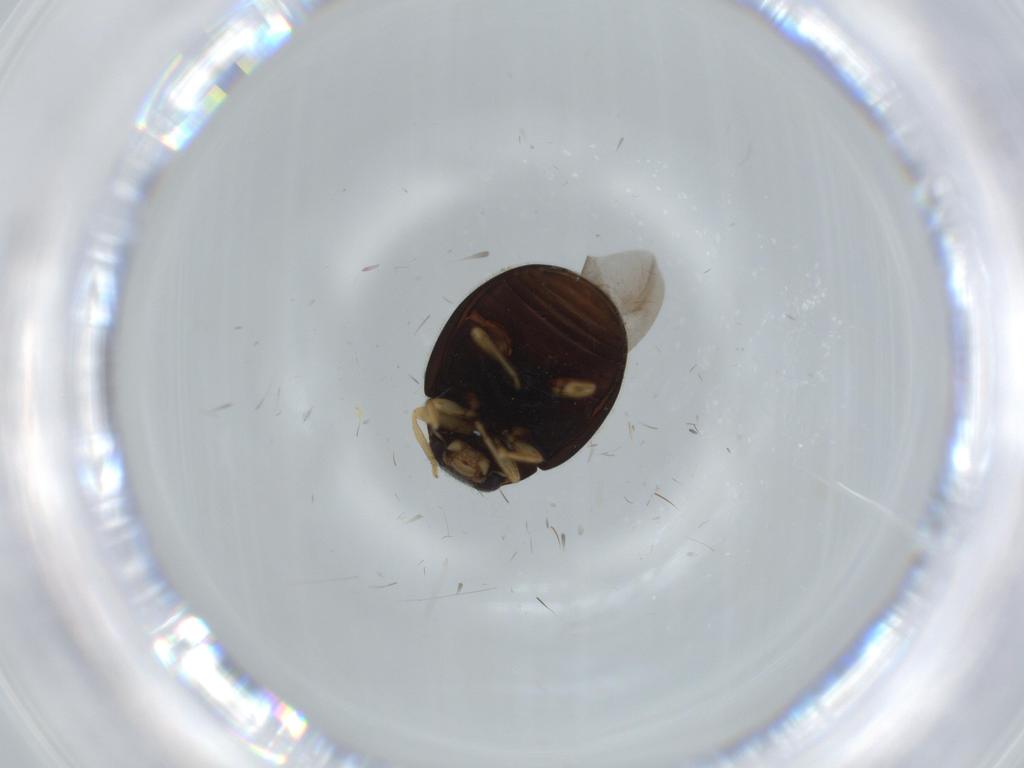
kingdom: Animalia
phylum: Arthropoda
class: Insecta
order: Coleoptera
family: Coccinellidae
